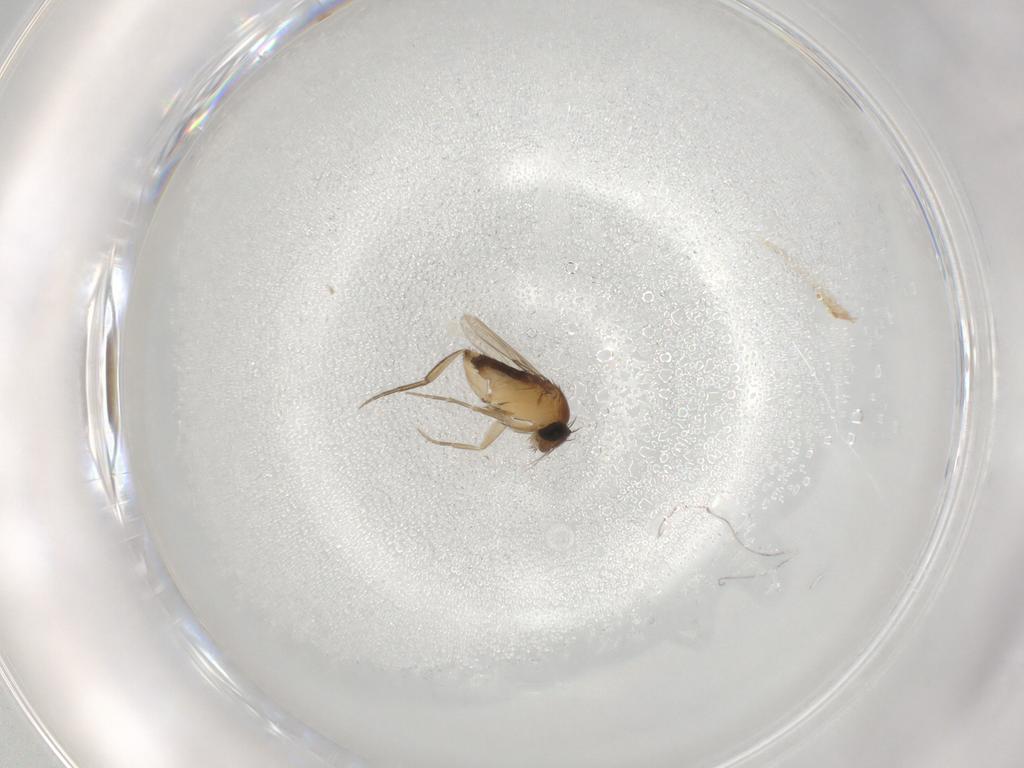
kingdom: Animalia
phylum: Arthropoda
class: Insecta
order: Diptera
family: Phoridae
